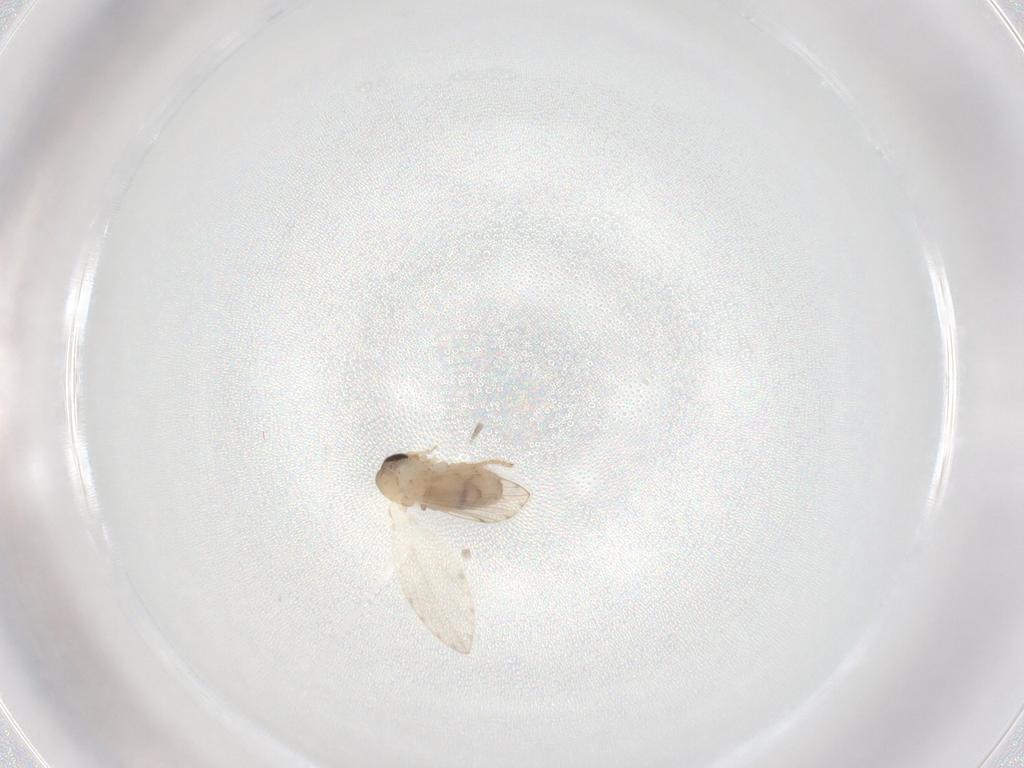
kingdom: Animalia
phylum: Arthropoda
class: Insecta
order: Diptera
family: Psychodidae
